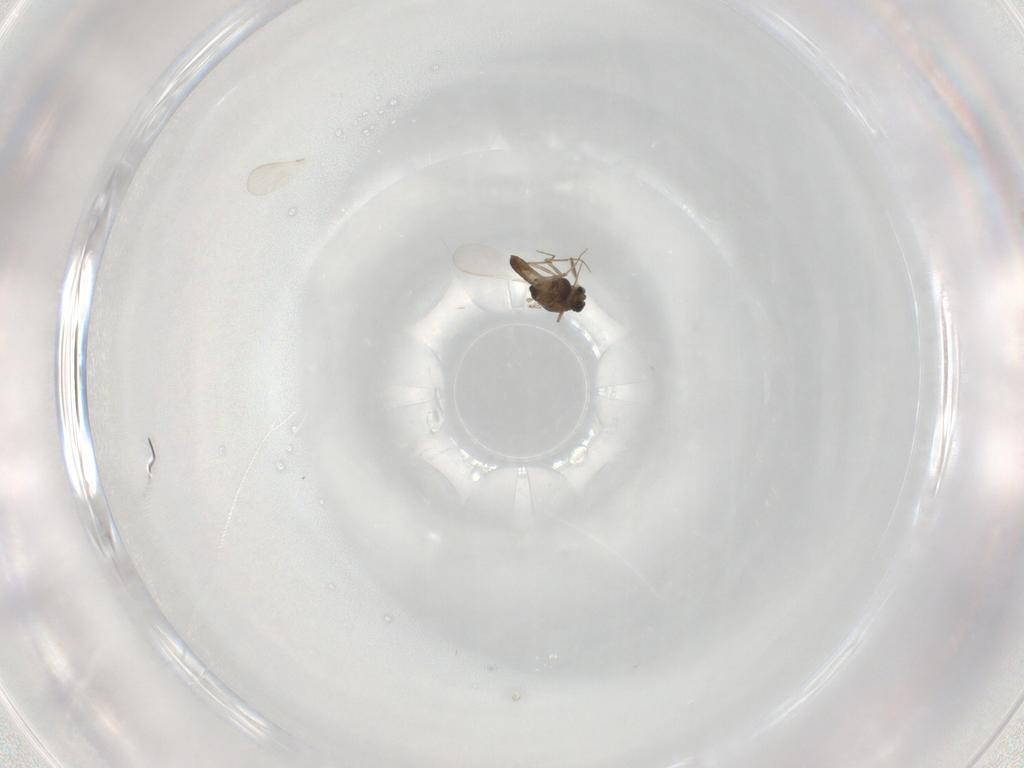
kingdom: Animalia
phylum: Arthropoda
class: Insecta
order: Diptera
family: Chironomidae
